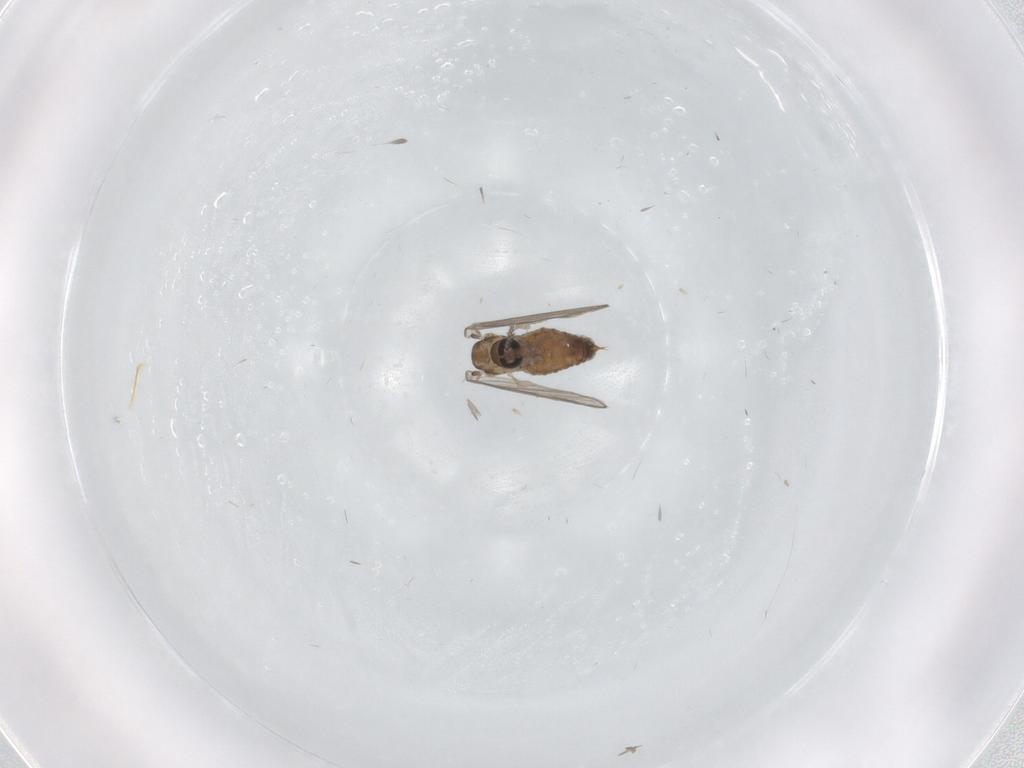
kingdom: Animalia
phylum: Arthropoda
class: Insecta
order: Diptera
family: Psychodidae
